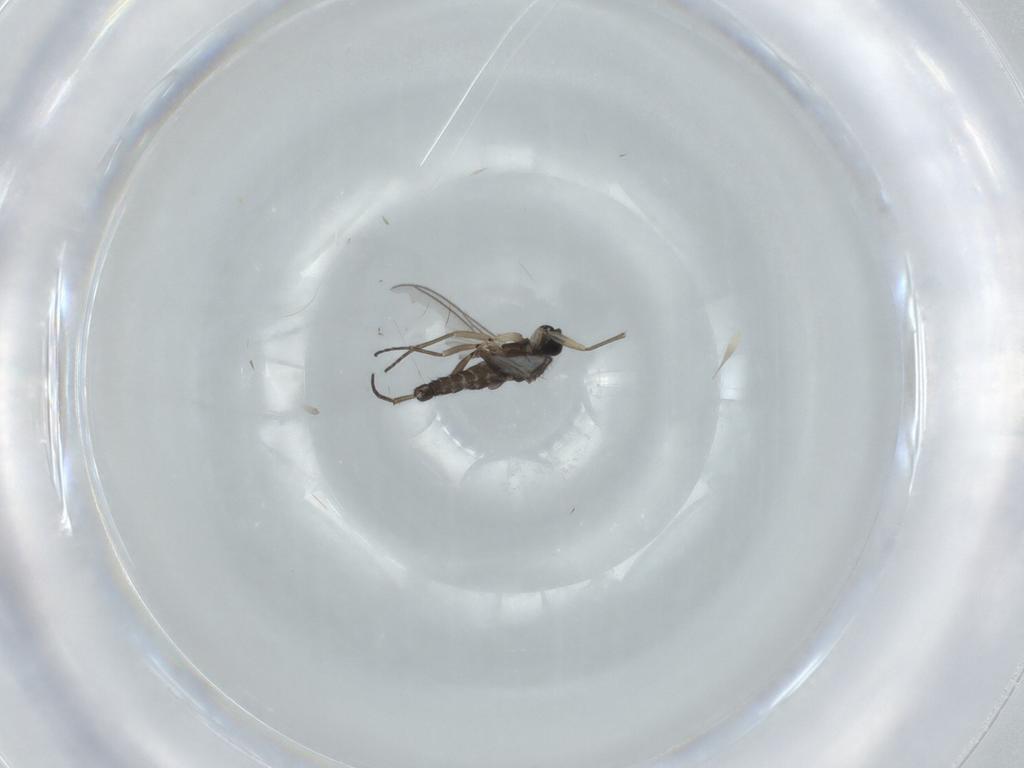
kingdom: Animalia
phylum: Arthropoda
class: Insecta
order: Diptera
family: Sciaridae
